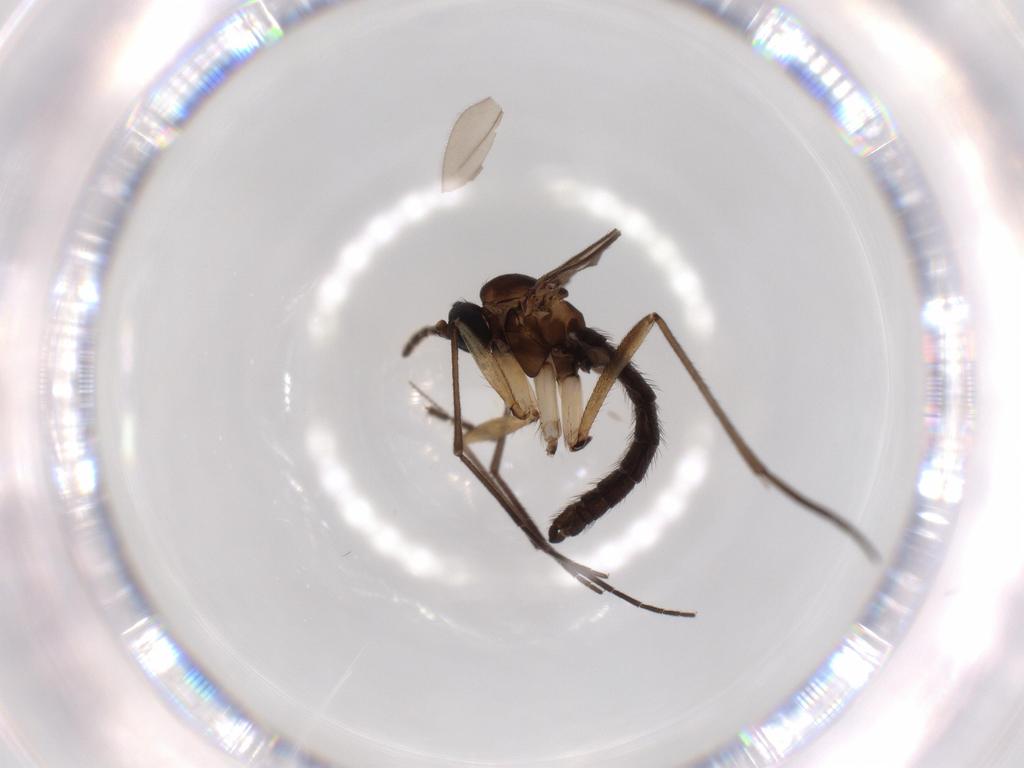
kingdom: Animalia
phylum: Arthropoda
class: Insecta
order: Diptera
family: Sciaridae
